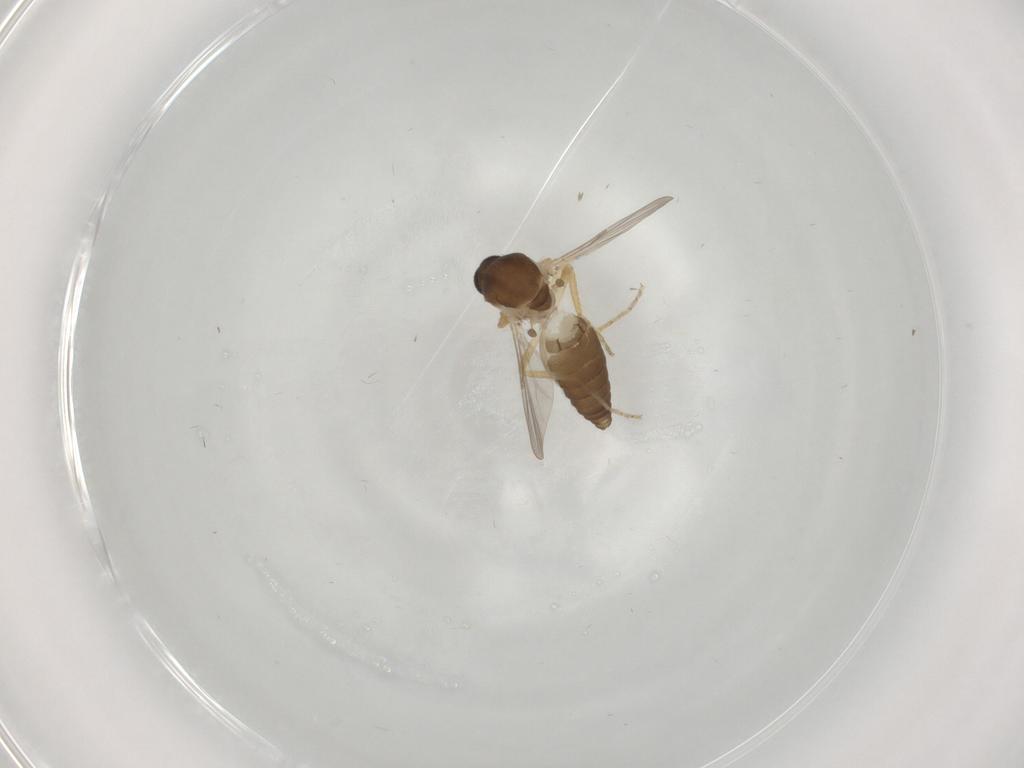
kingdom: Animalia
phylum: Arthropoda
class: Insecta
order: Diptera
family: Ceratopogonidae
